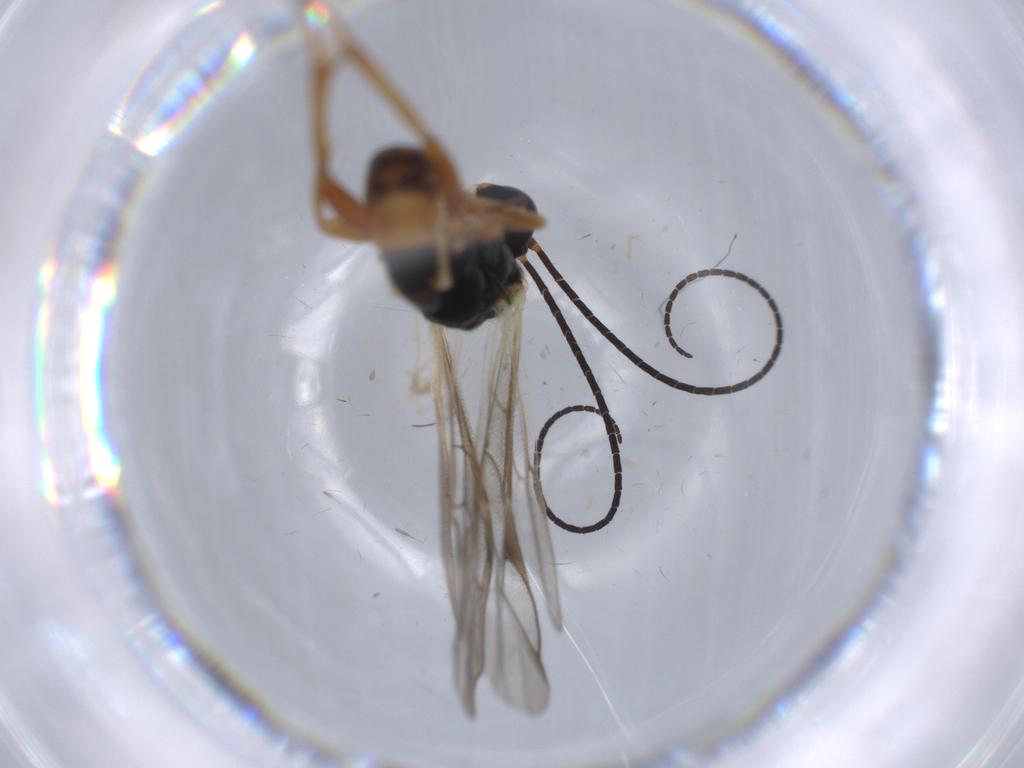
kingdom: Animalia
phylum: Arthropoda
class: Insecta
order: Hymenoptera
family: Ichneumonidae
